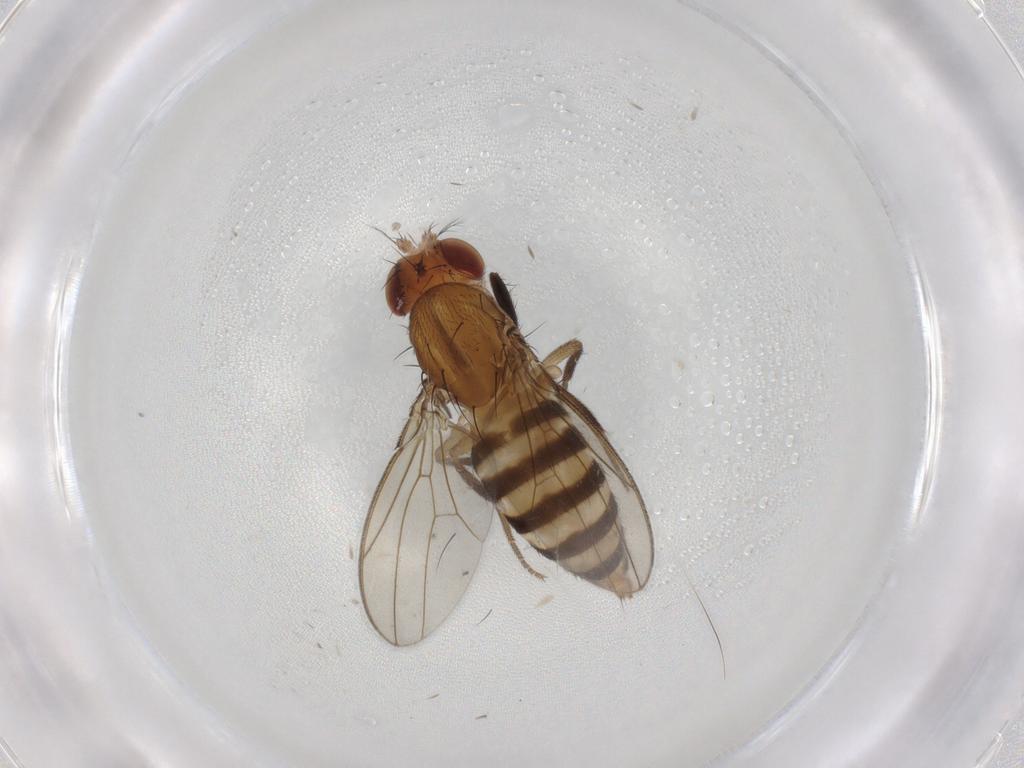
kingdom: Animalia
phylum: Arthropoda
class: Insecta
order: Diptera
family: Drosophilidae
